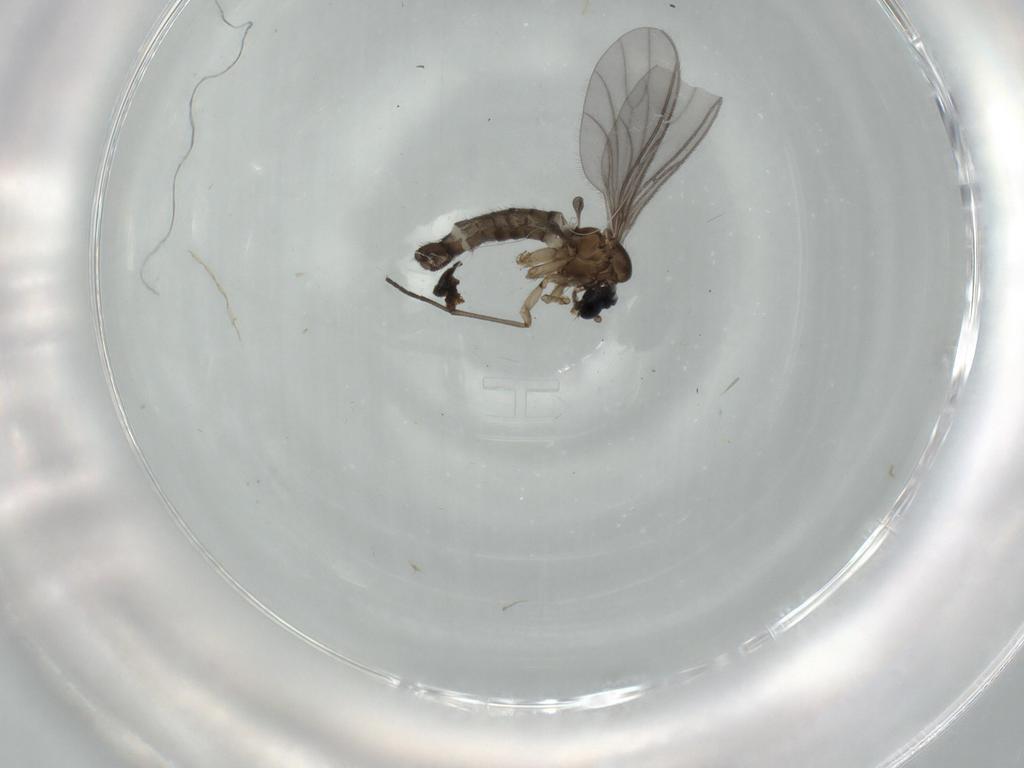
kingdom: Animalia
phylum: Arthropoda
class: Insecta
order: Diptera
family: Sciaridae
